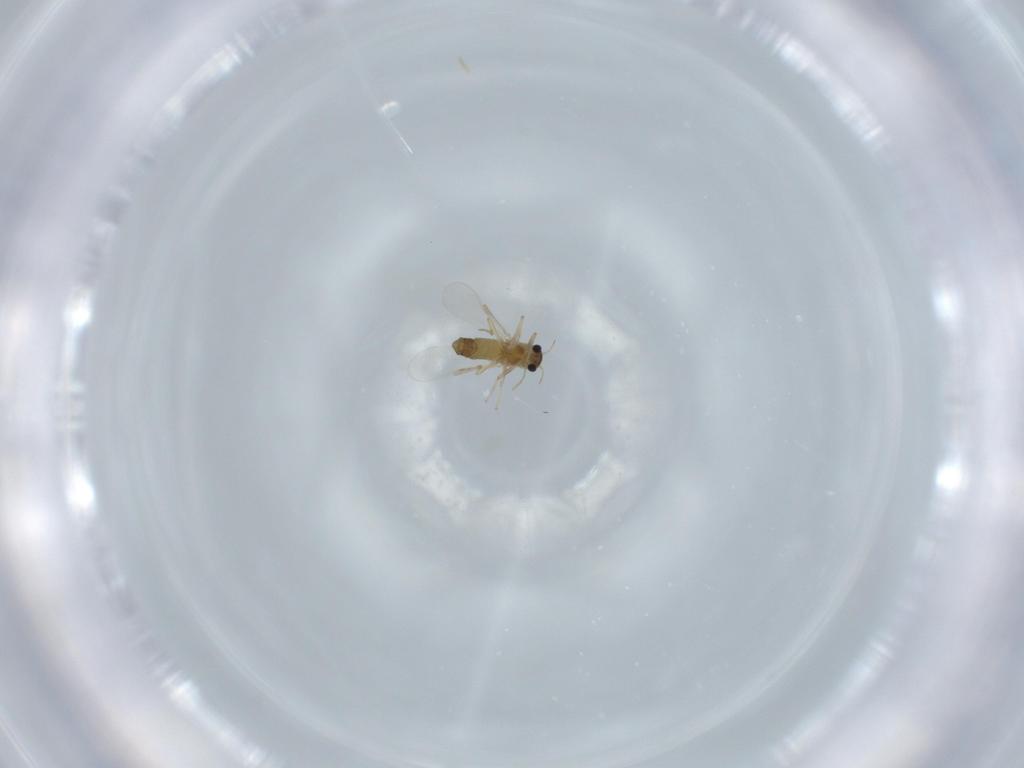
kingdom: Animalia
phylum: Arthropoda
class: Insecta
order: Diptera
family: Chironomidae
